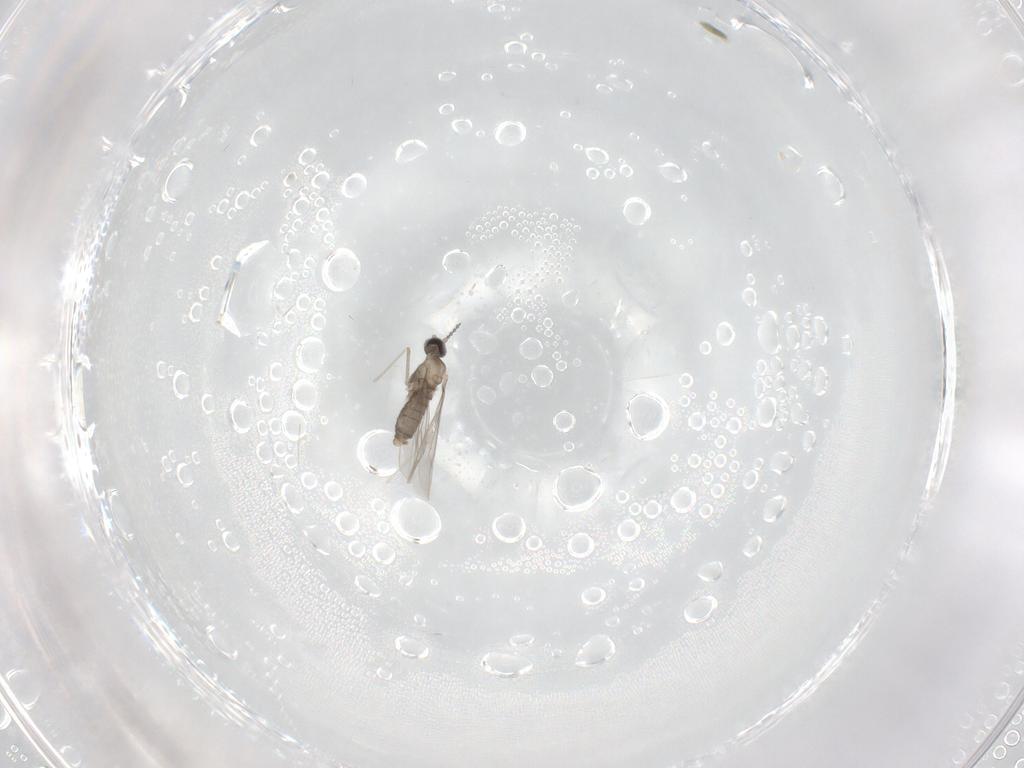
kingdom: Animalia
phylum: Arthropoda
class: Insecta
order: Diptera
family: Cecidomyiidae
